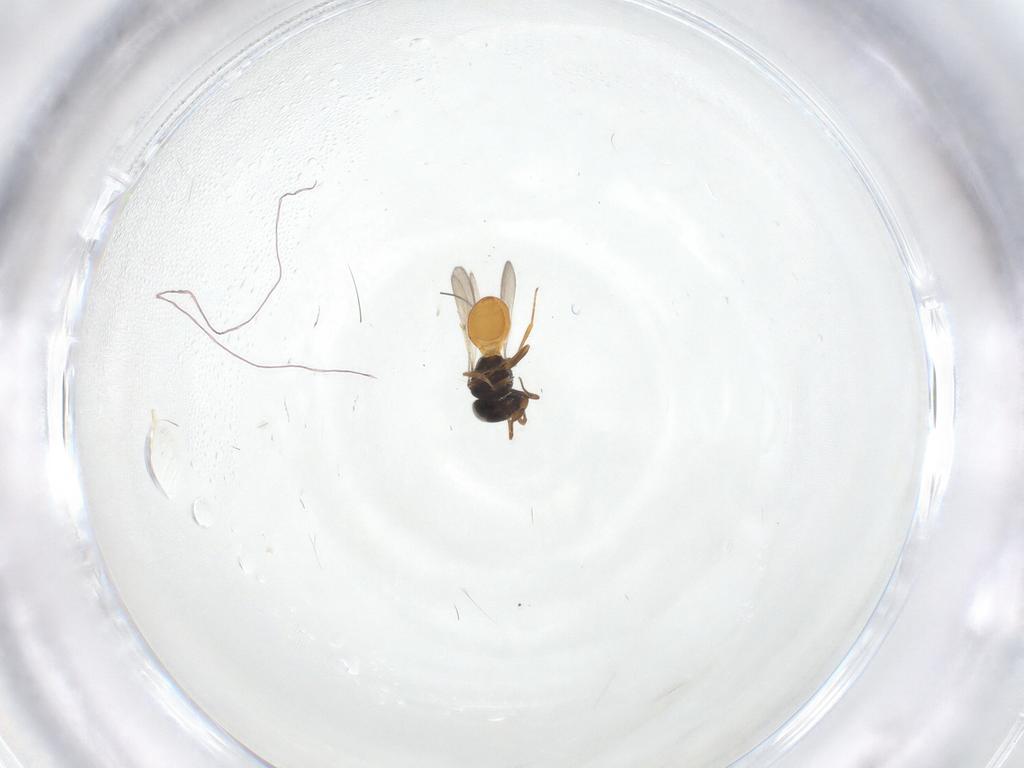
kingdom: Animalia
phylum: Arthropoda
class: Insecta
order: Hymenoptera
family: Scelionidae
